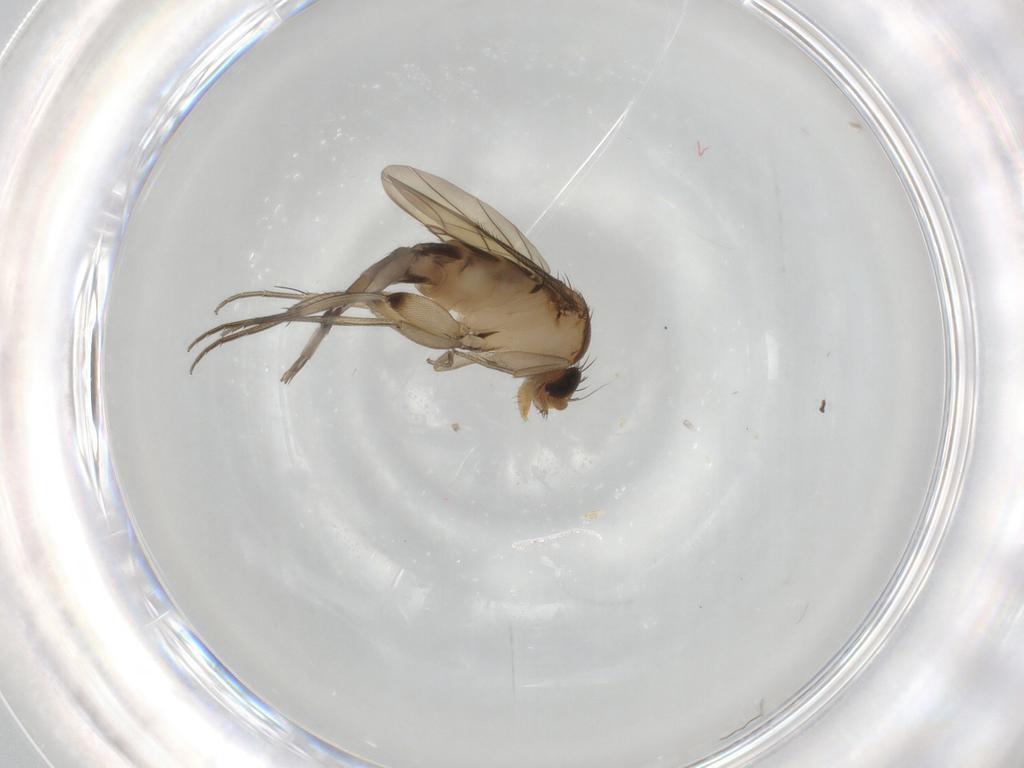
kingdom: Animalia
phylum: Arthropoda
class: Insecta
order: Diptera
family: Phoridae
